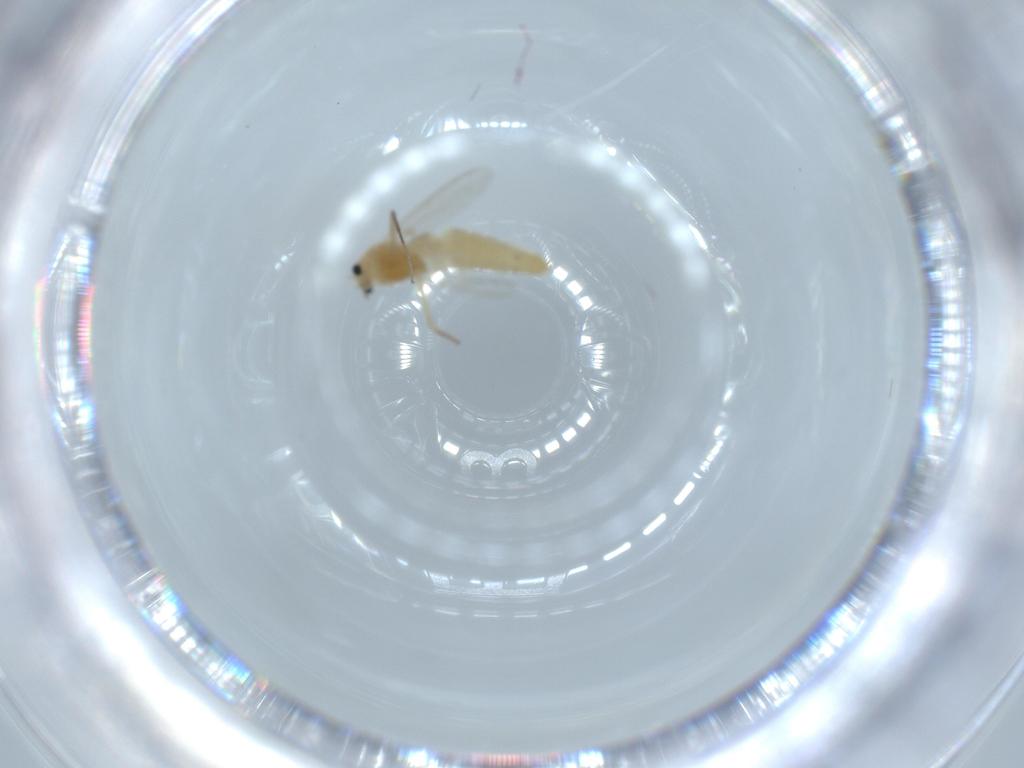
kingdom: Animalia
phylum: Arthropoda
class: Insecta
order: Diptera
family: Chironomidae
